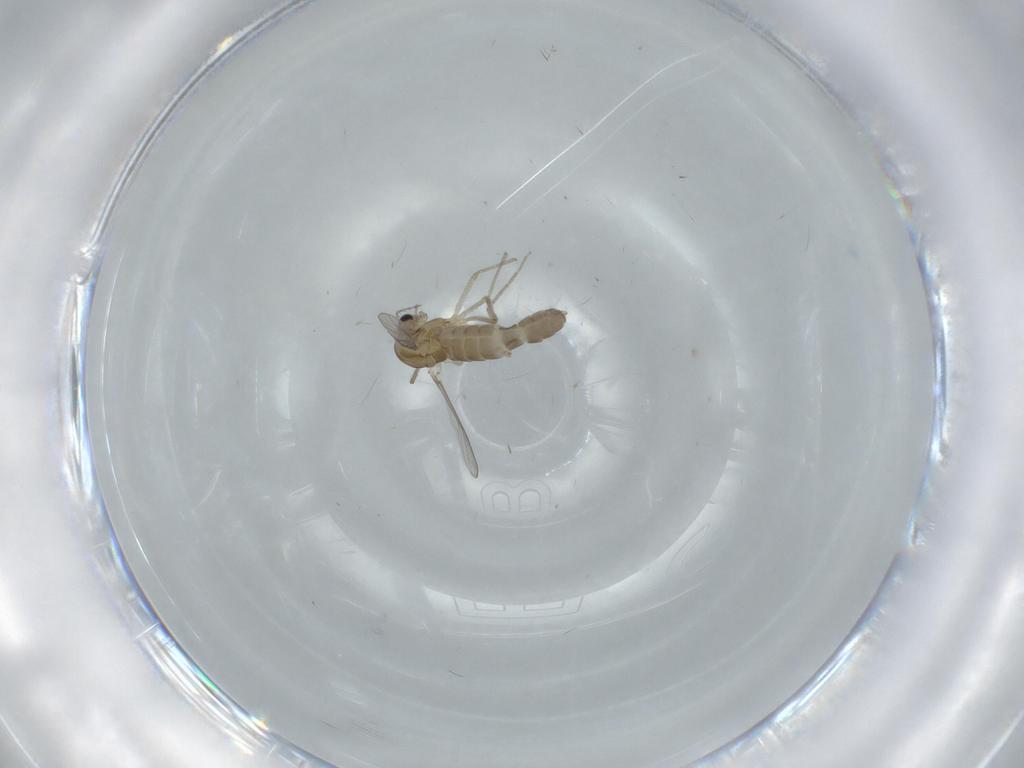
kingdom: Animalia
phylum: Arthropoda
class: Insecta
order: Diptera
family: Chironomidae
